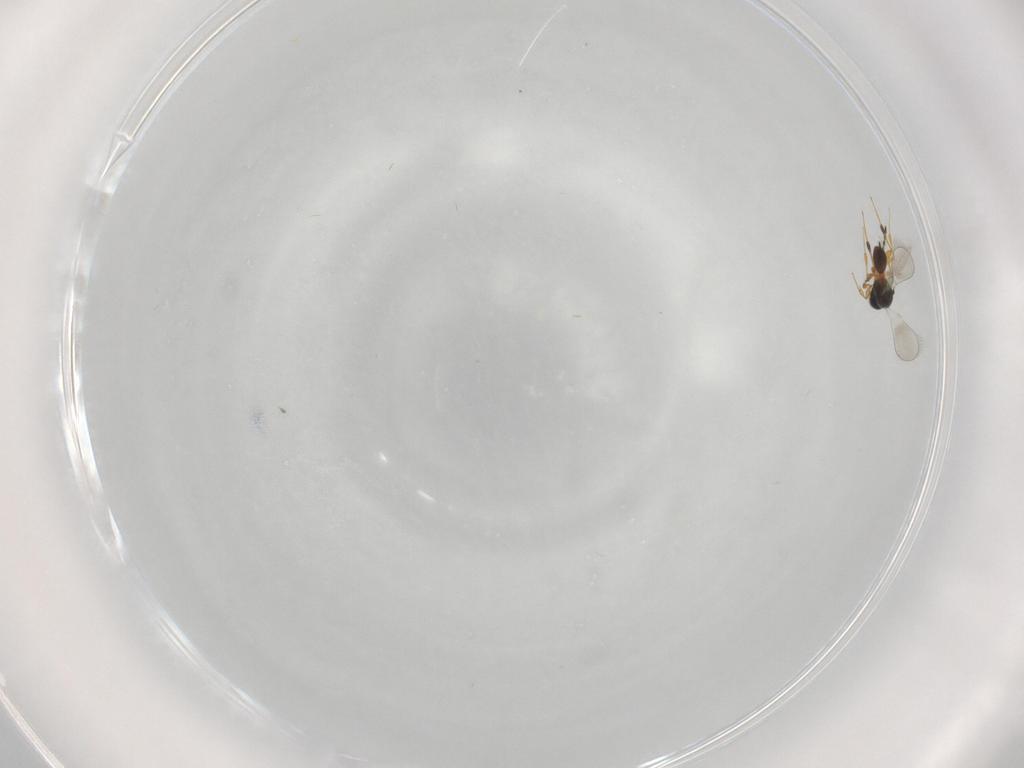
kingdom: Animalia
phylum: Arthropoda
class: Insecta
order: Hymenoptera
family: Platygastridae
